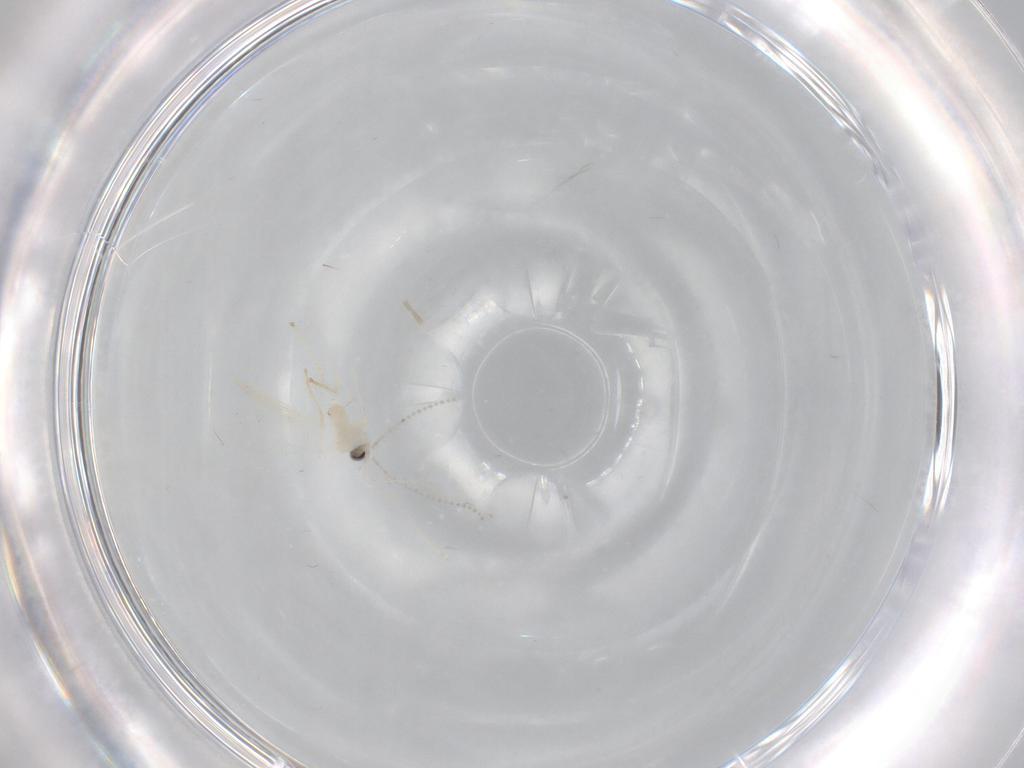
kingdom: Animalia
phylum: Arthropoda
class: Insecta
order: Diptera
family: Cecidomyiidae
